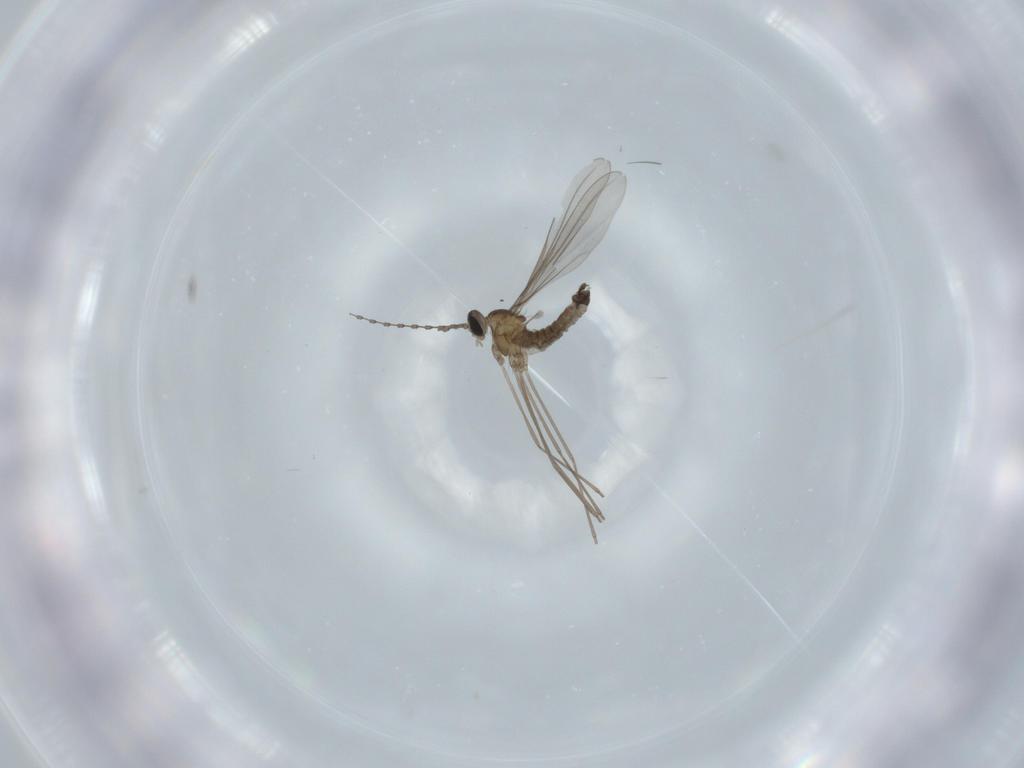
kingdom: Animalia
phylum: Arthropoda
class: Insecta
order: Diptera
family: Cecidomyiidae
